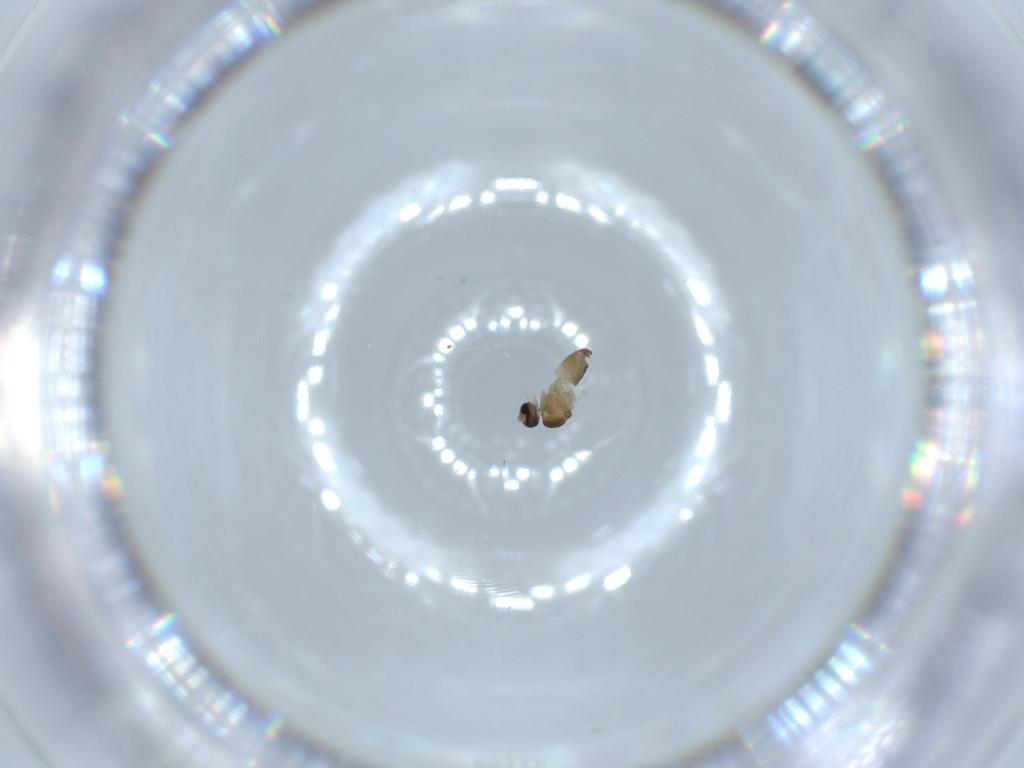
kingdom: Animalia
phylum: Arthropoda
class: Insecta
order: Diptera
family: Cecidomyiidae
